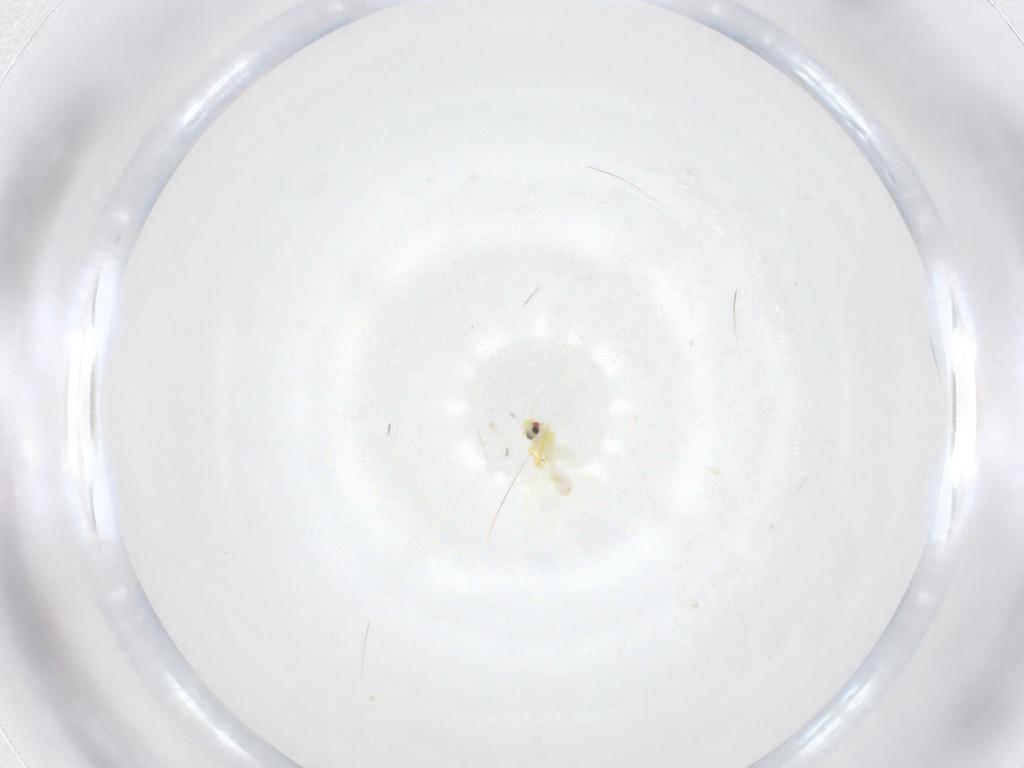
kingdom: Animalia
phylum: Arthropoda
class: Insecta
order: Hemiptera
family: Aleyrodidae
